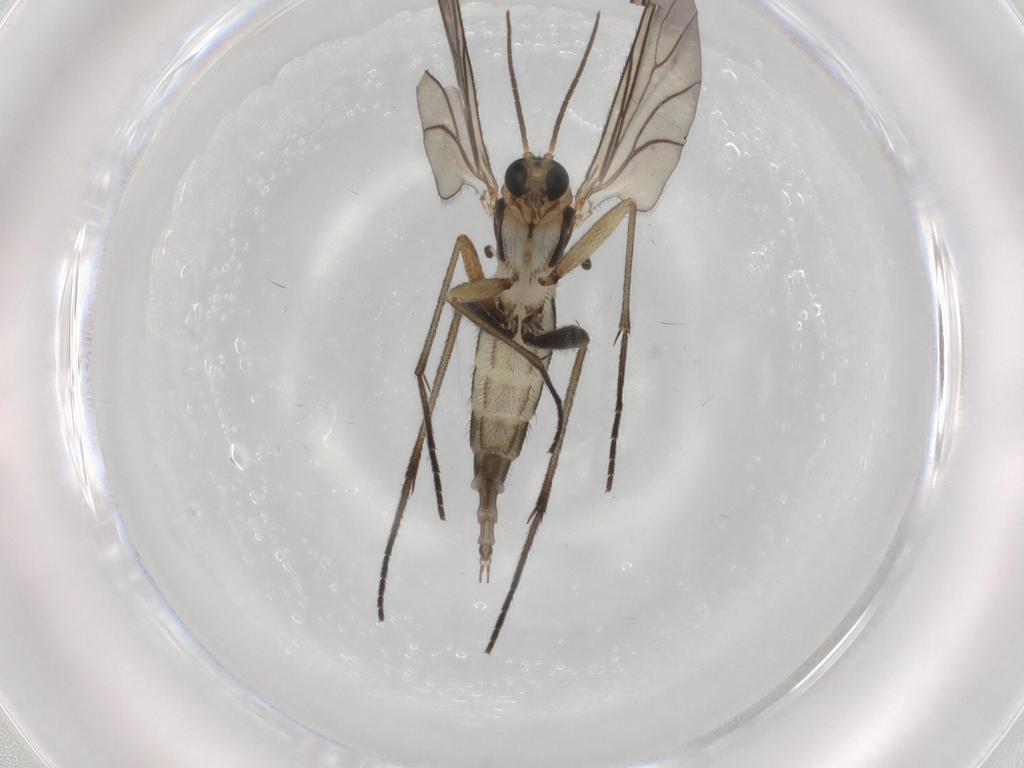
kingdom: Animalia
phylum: Arthropoda
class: Insecta
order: Diptera
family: Sciaridae
